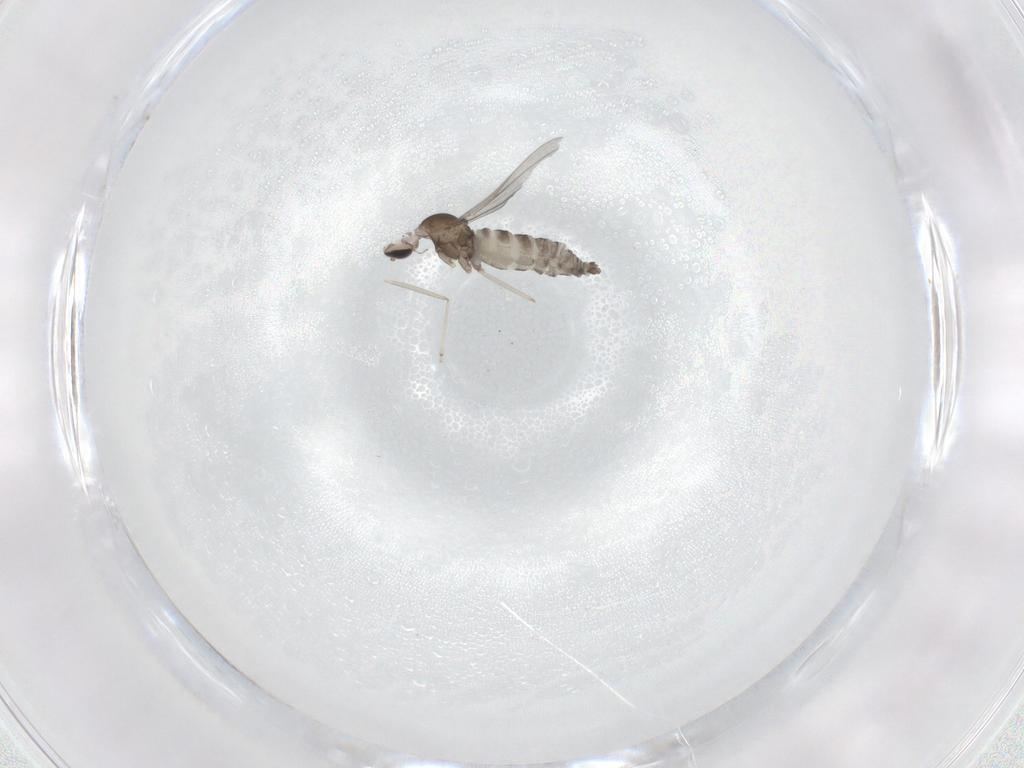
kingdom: Animalia
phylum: Arthropoda
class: Insecta
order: Diptera
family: Cecidomyiidae
